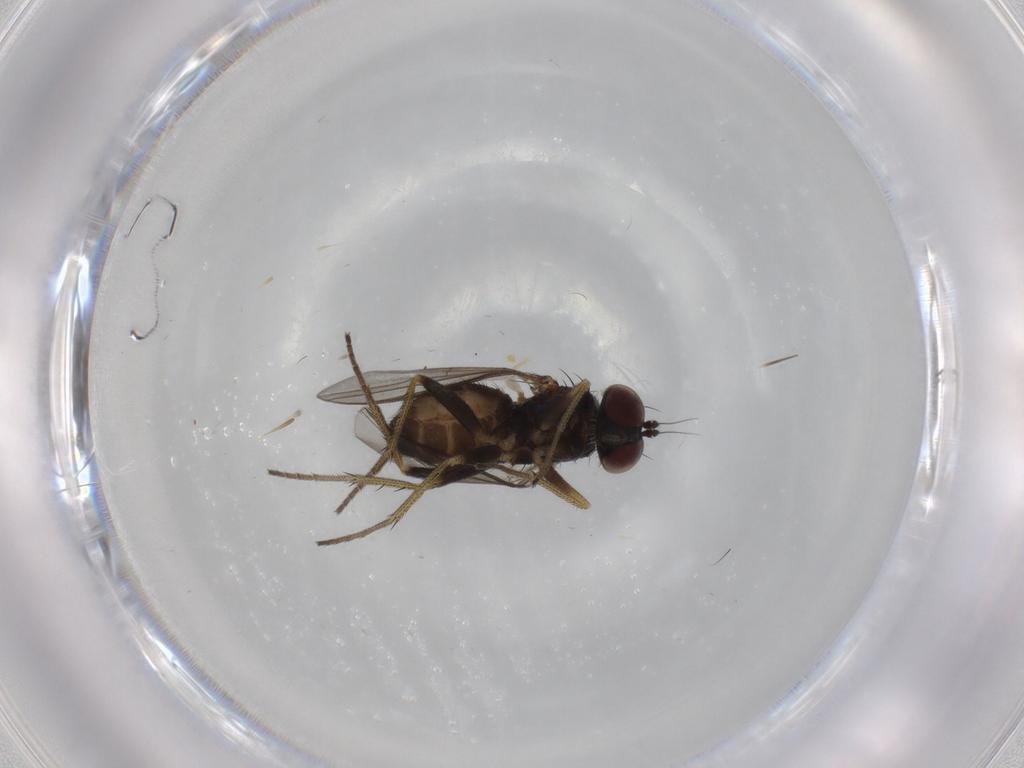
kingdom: Animalia
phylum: Arthropoda
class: Insecta
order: Diptera
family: Dolichopodidae
